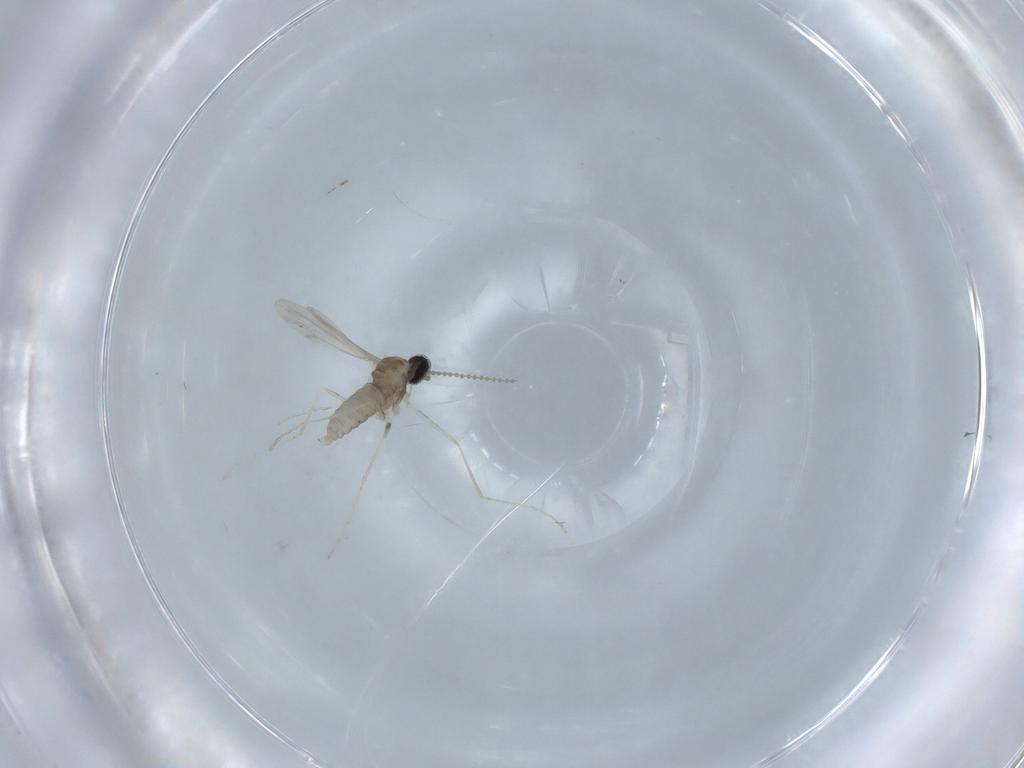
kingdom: Animalia
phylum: Arthropoda
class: Insecta
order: Diptera
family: Cecidomyiidae
